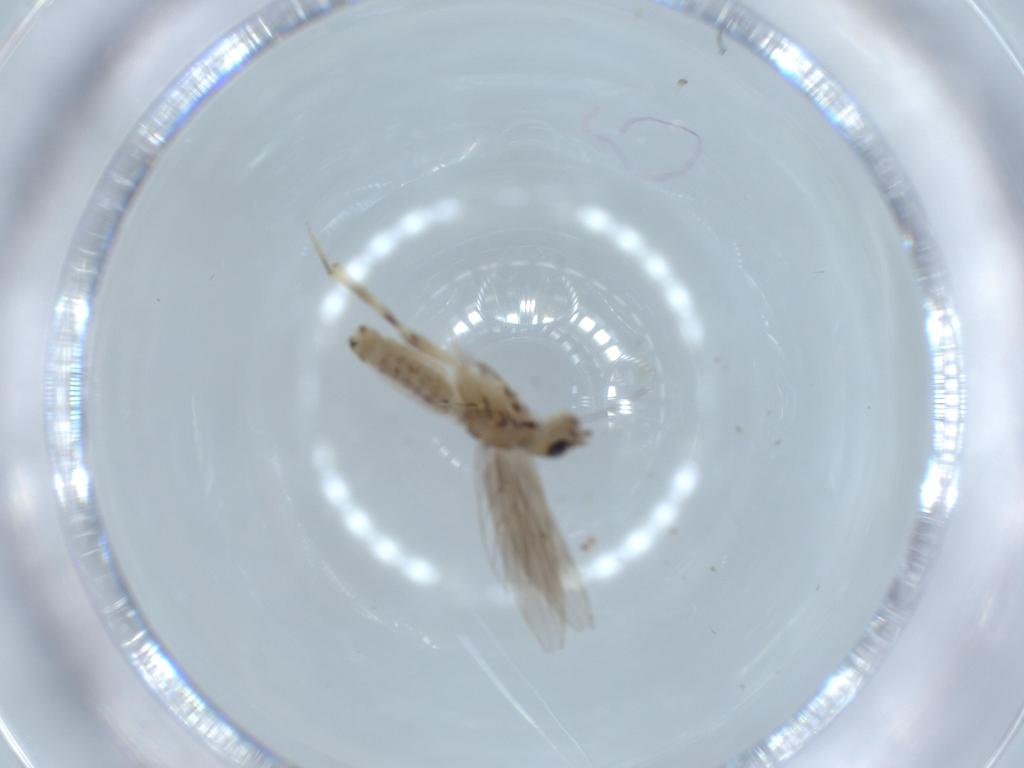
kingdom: Animalia
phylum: Arthropoda
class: Insecta
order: Psocodea
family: Lepidopsocidae
